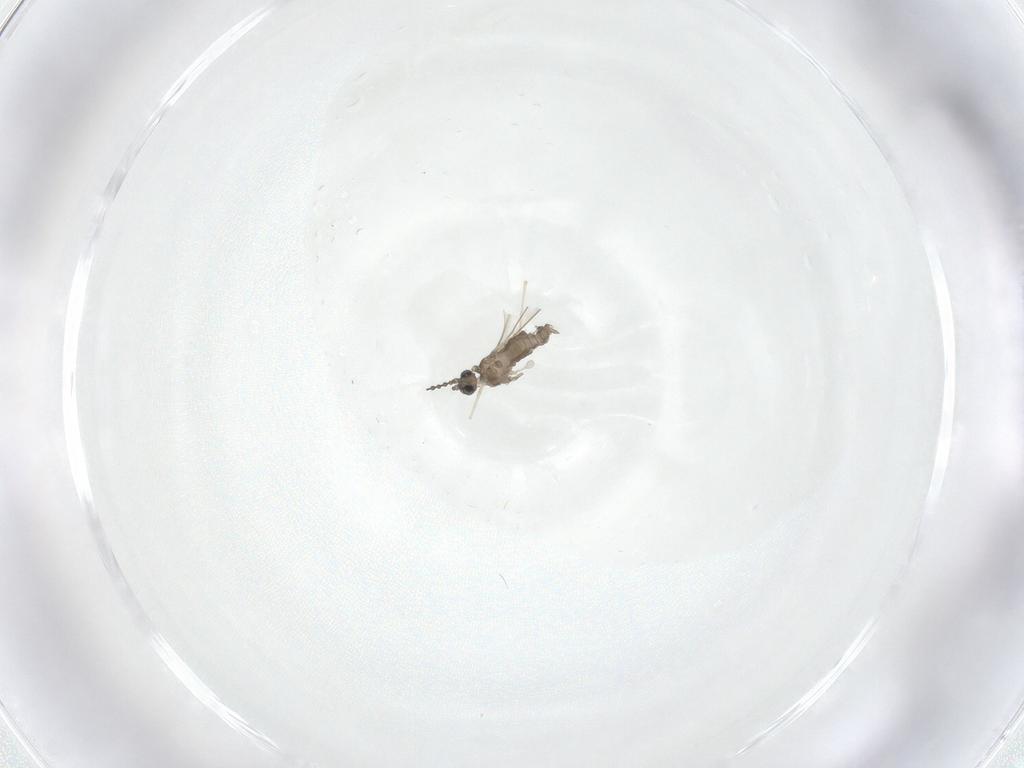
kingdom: Animalia
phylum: Arthropoda
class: Insecta
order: Diptera
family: Cecidomyiidae
